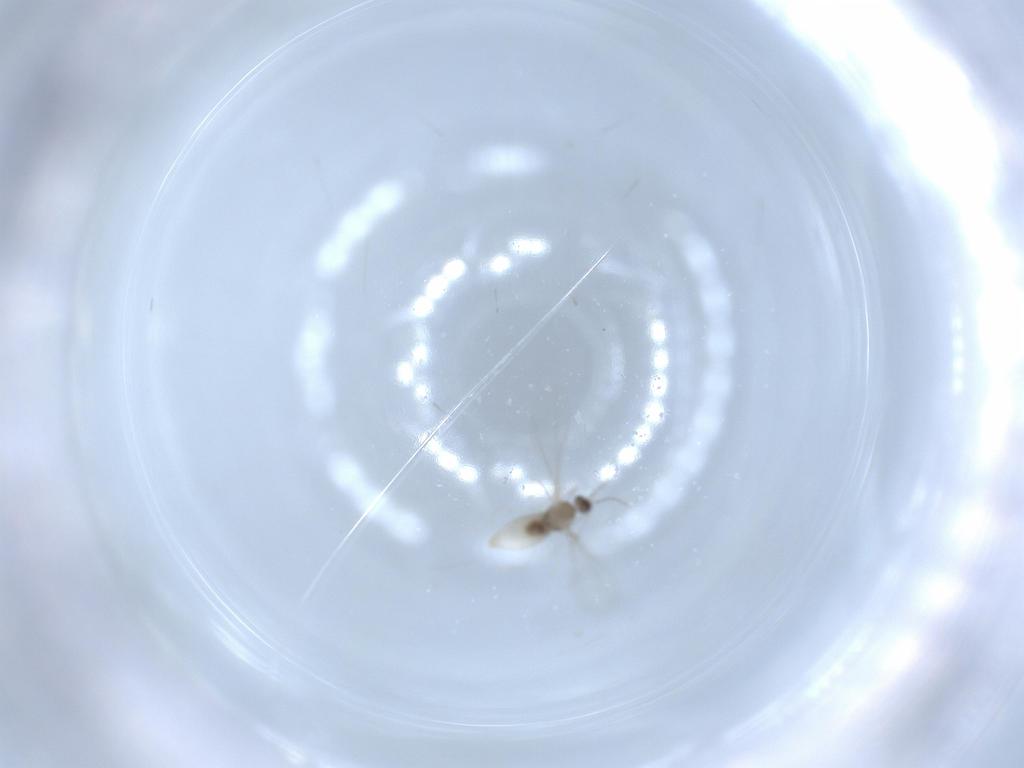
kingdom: Animalia
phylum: Arthropoda
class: Insecta
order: Diptera
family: Cecidomyiidae
